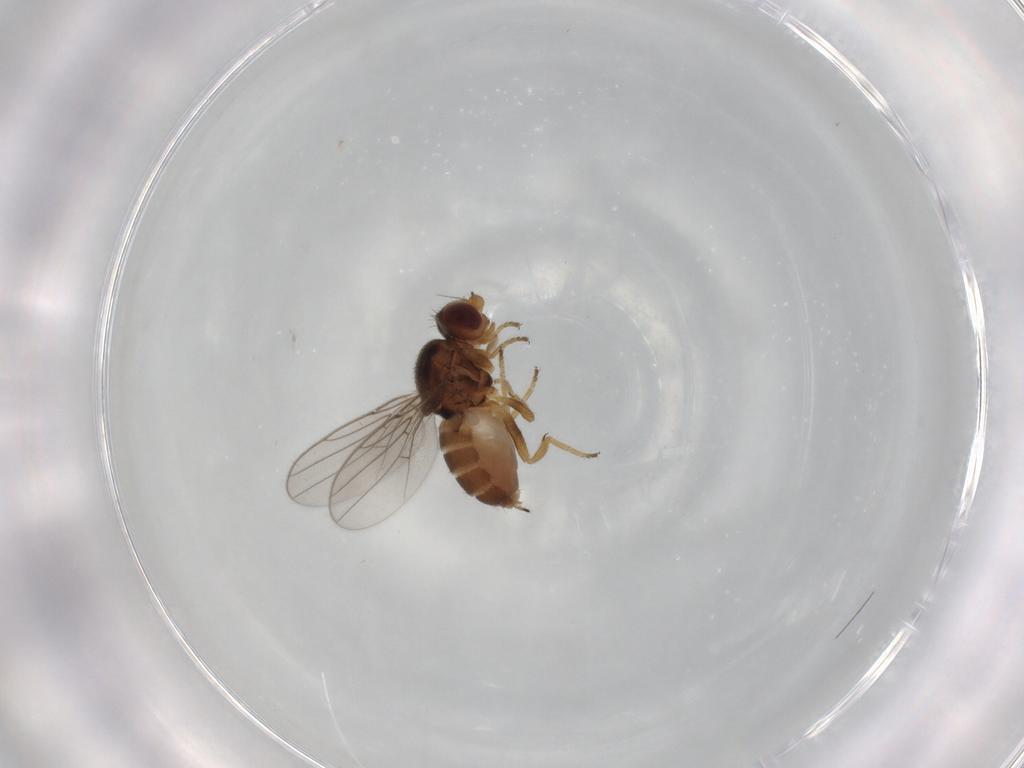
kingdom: Animalia
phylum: Arthropoda
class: Insecta
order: Diptera
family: Chloropidae
